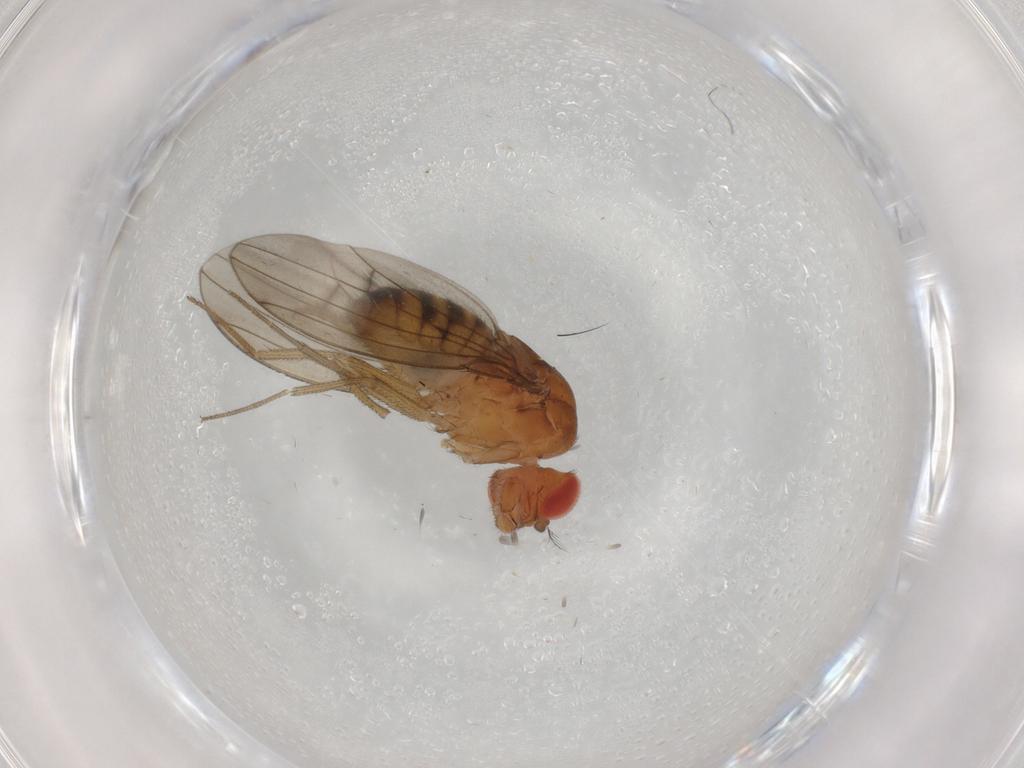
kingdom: Animalia
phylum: Arthropoda
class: Insecta
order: Diptera
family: Drosophilidae
